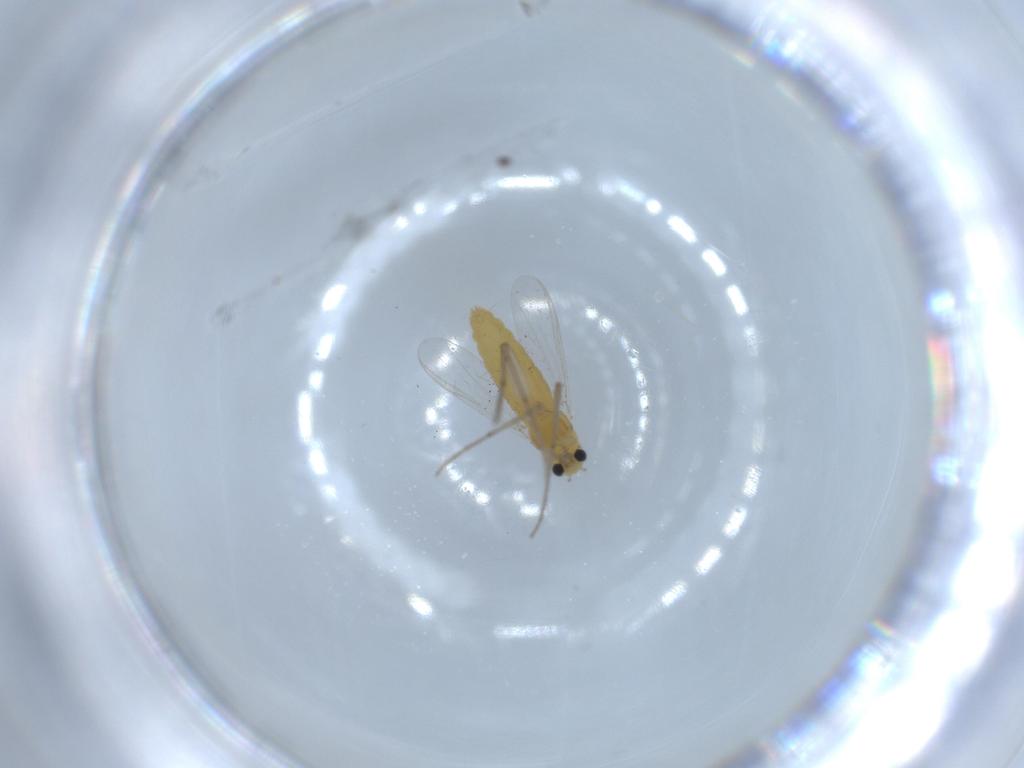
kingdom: Animalia
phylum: Arthropoda
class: Insecta
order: Diptera
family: Chironomidae
